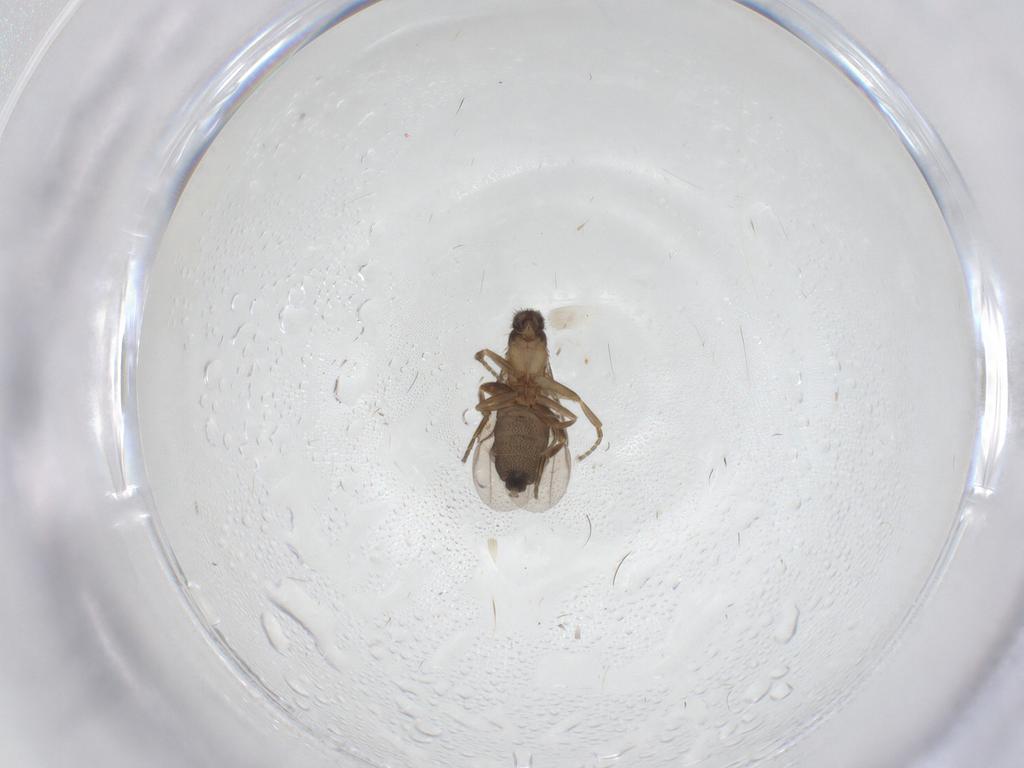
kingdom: Animalia
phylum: Arthropoda
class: Insecta
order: Diptera
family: Phoridae
